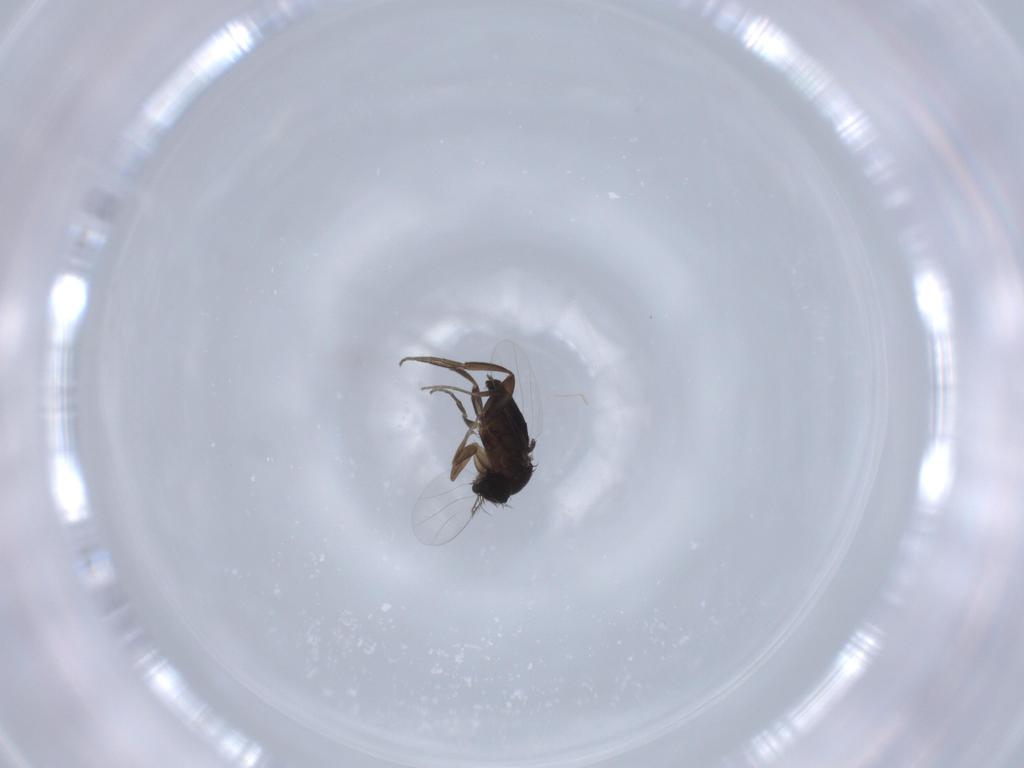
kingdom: Animalia
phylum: Arthropoda
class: Insecta
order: Diptera
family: Phoridae
